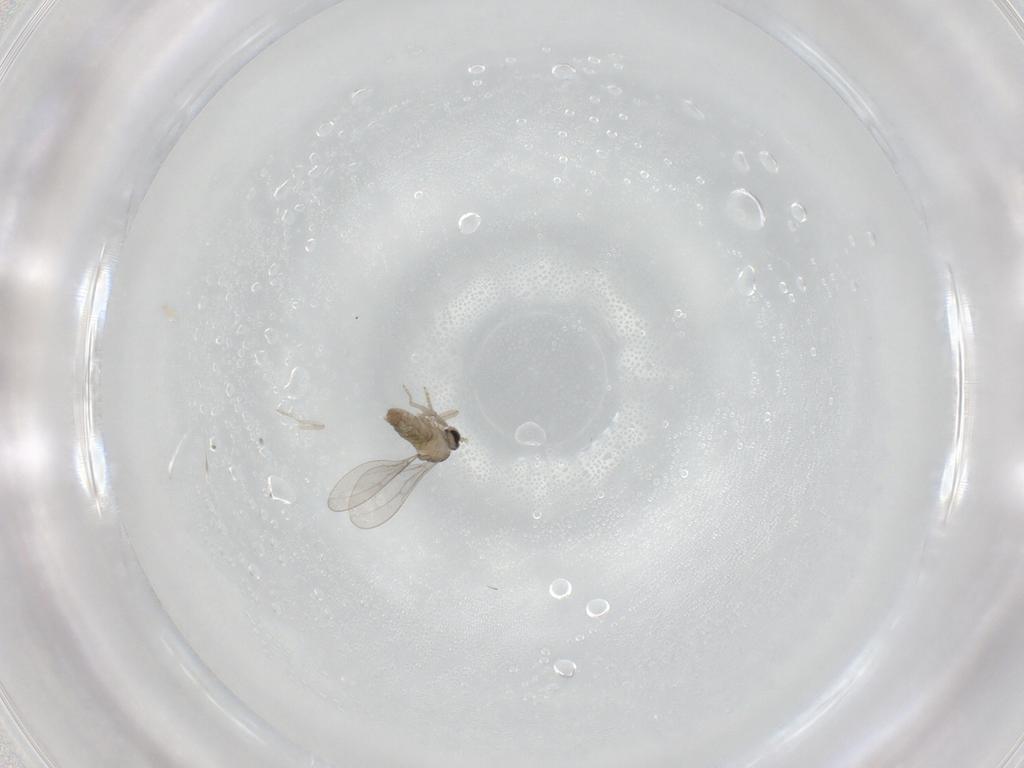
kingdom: Animalia
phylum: Arthropoda
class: Insecta
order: Diptera
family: Cecidomyiidae
